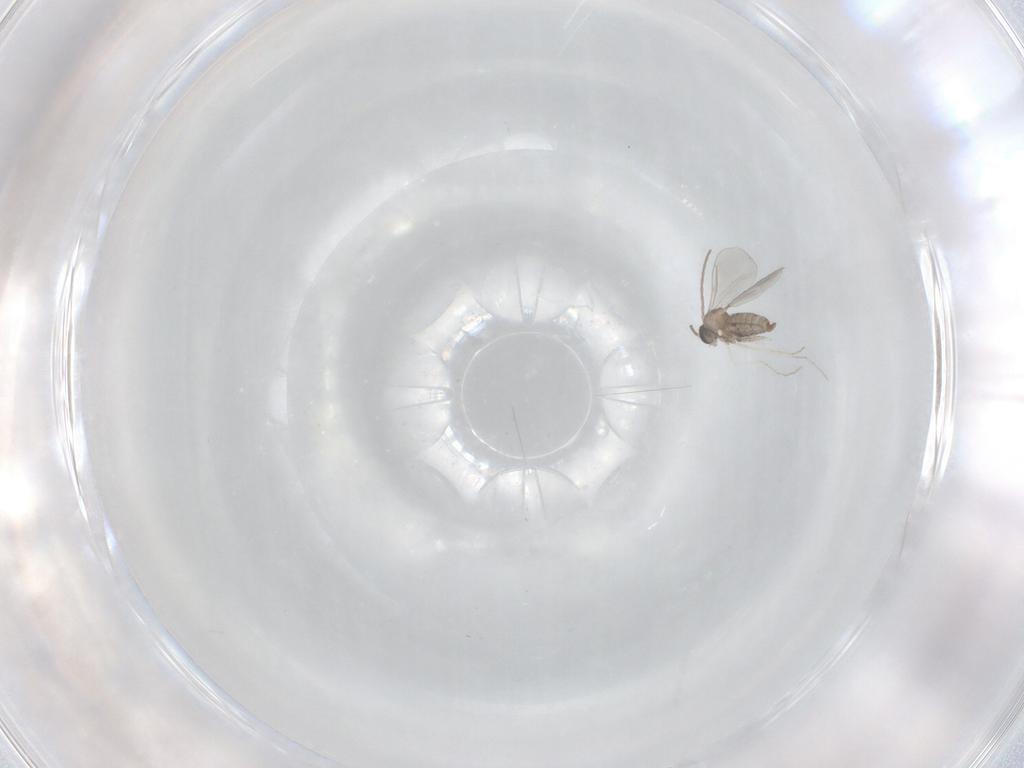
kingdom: Animalia
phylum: Arthropoda
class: Insecta
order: Diptera
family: Cecidomyiidae
